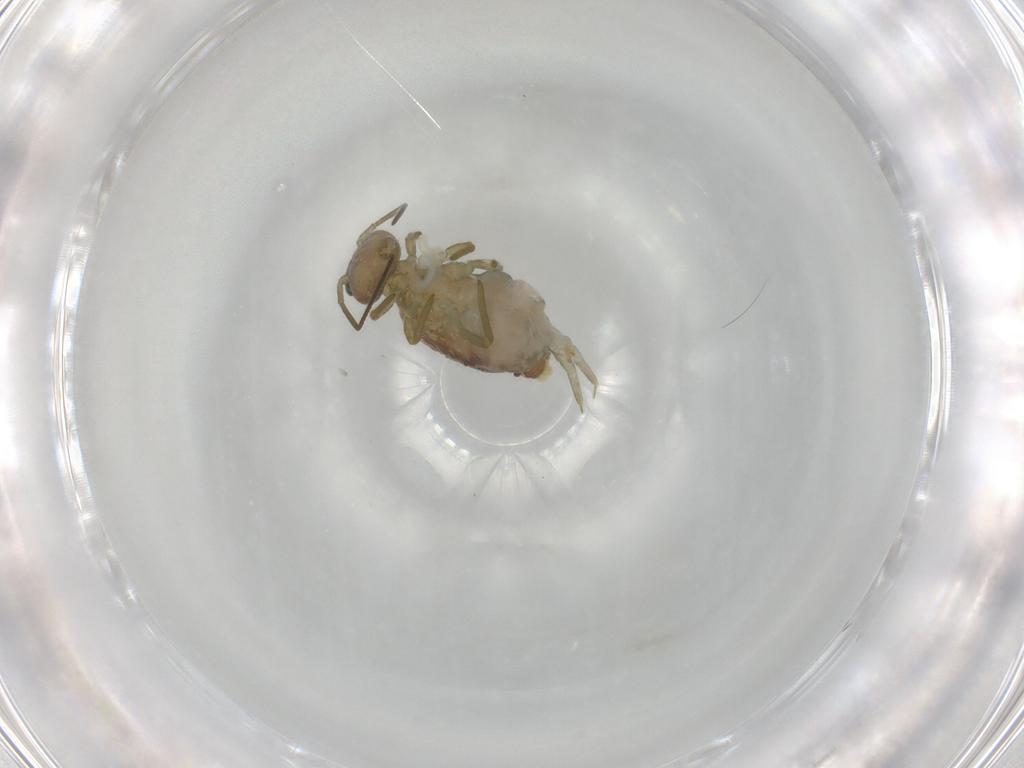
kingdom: Animalia
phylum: Arthropoda
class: Collembola
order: Symphypleona
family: Sminthuridae
